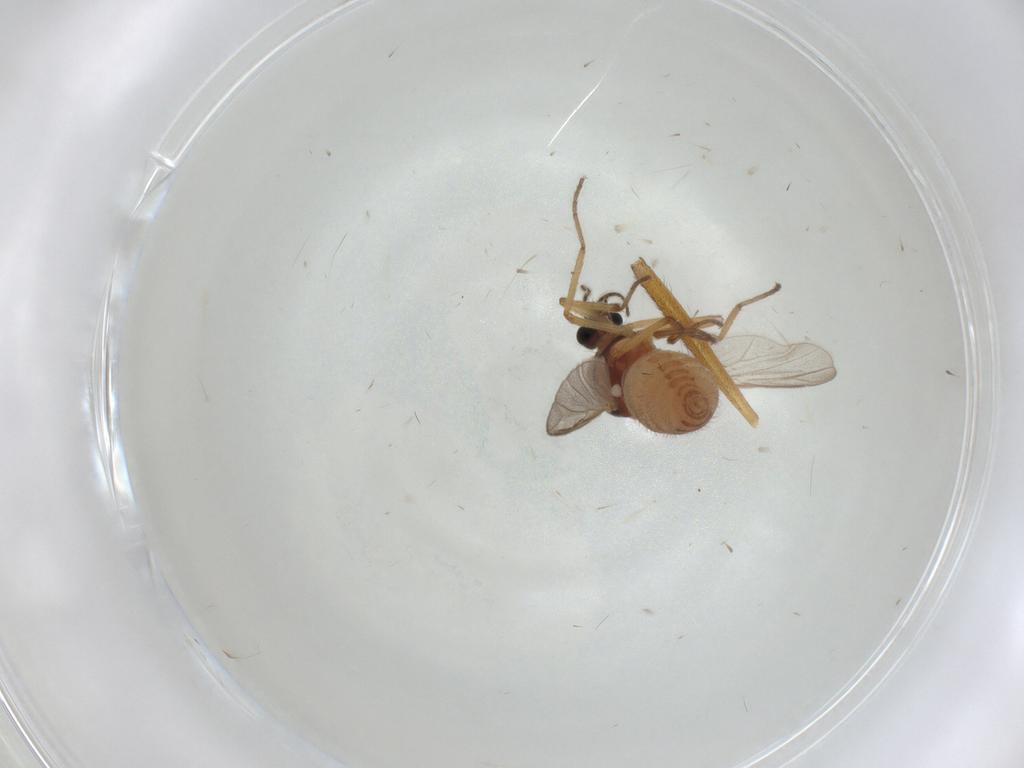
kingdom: Animalia
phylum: Arthropoda
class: Insecta
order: Diptera
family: Ceratopogonidae
